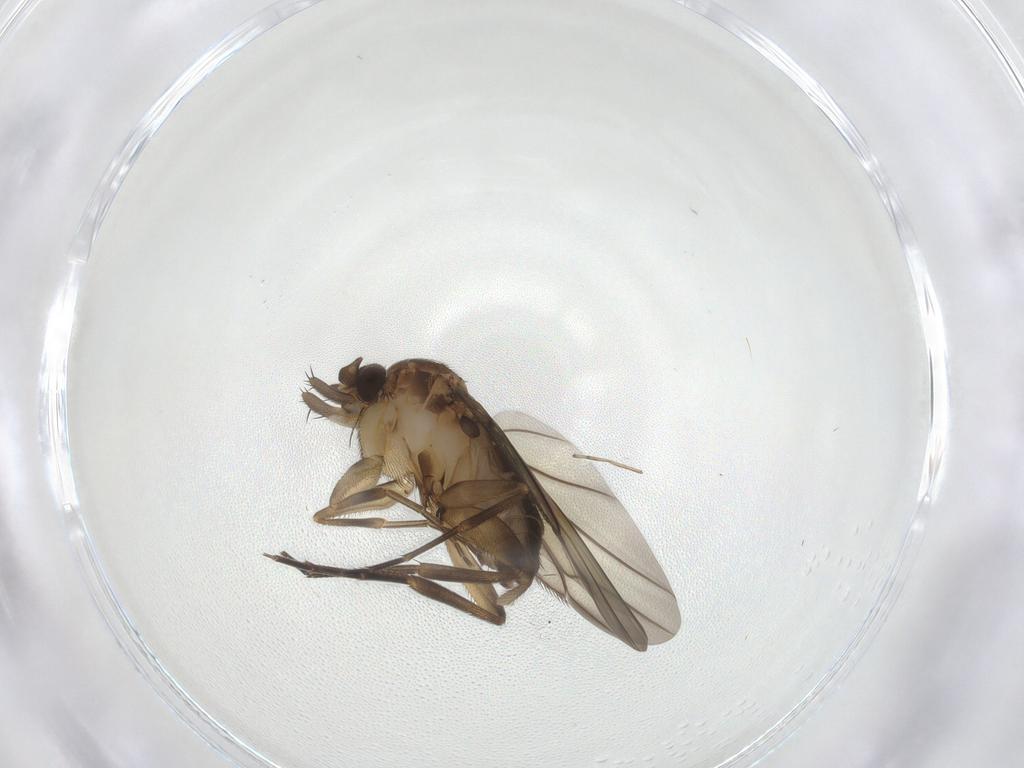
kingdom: Animalia
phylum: Arthropoda
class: Insecta
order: Diptera
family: Phoridae
